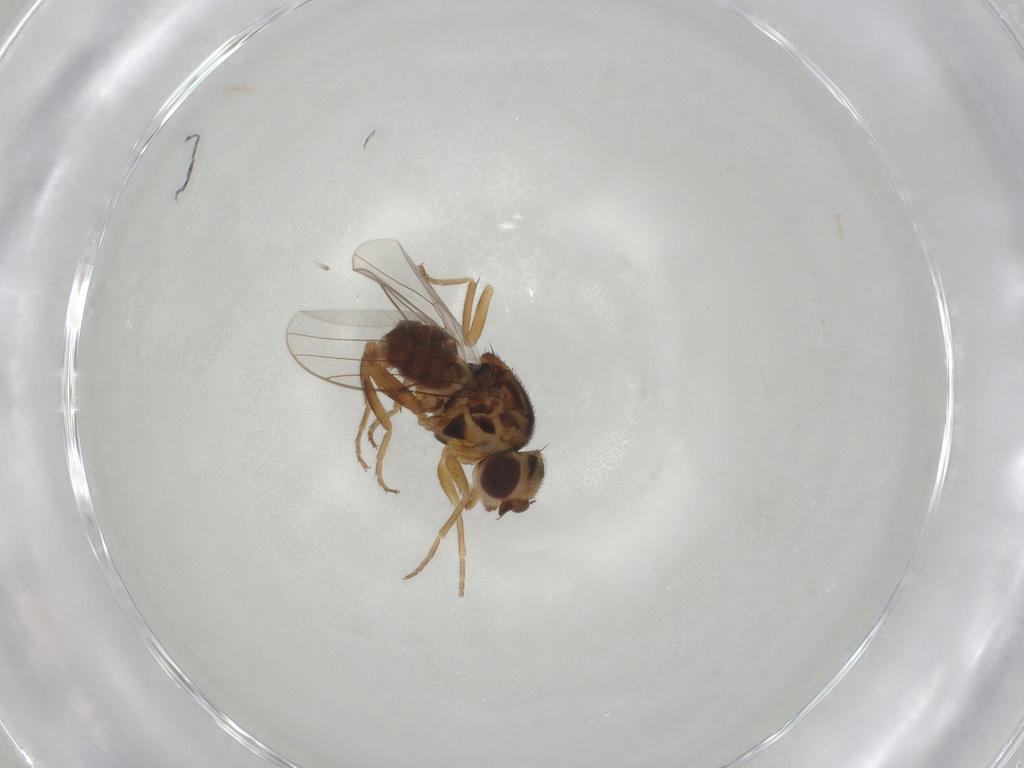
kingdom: Animalia
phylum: Arthropoda
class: Insecta
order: Diptera
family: Chloropidae
